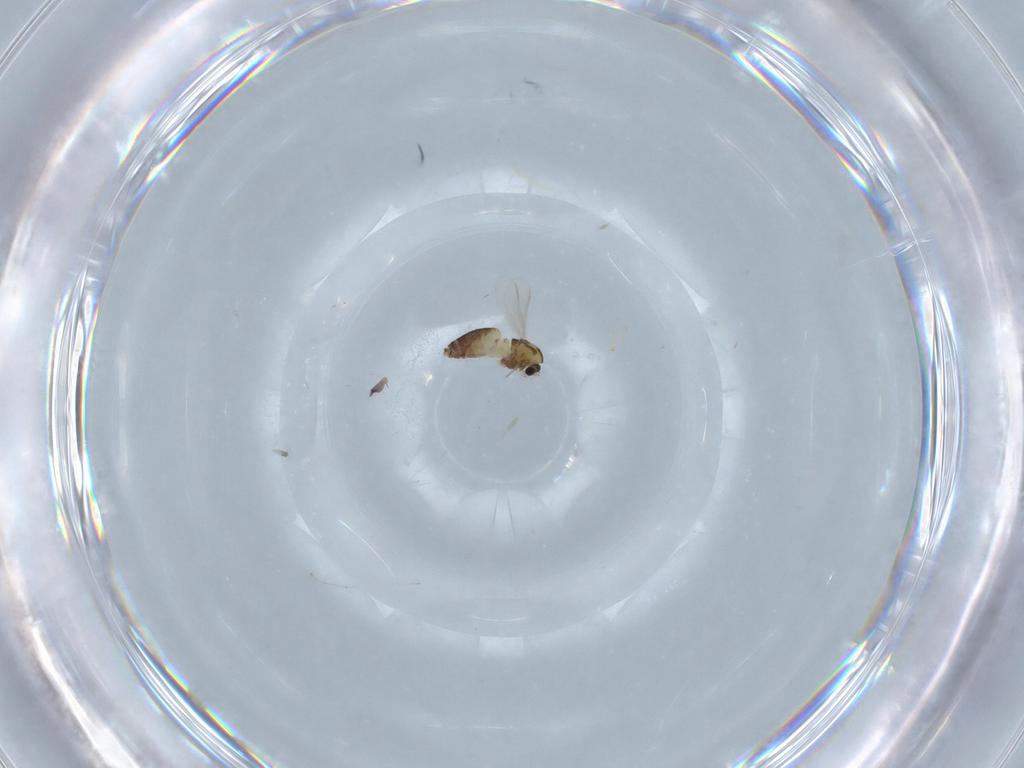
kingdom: Animalia
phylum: Arthropoda
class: Insecta
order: Diptera
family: Chironomidae
